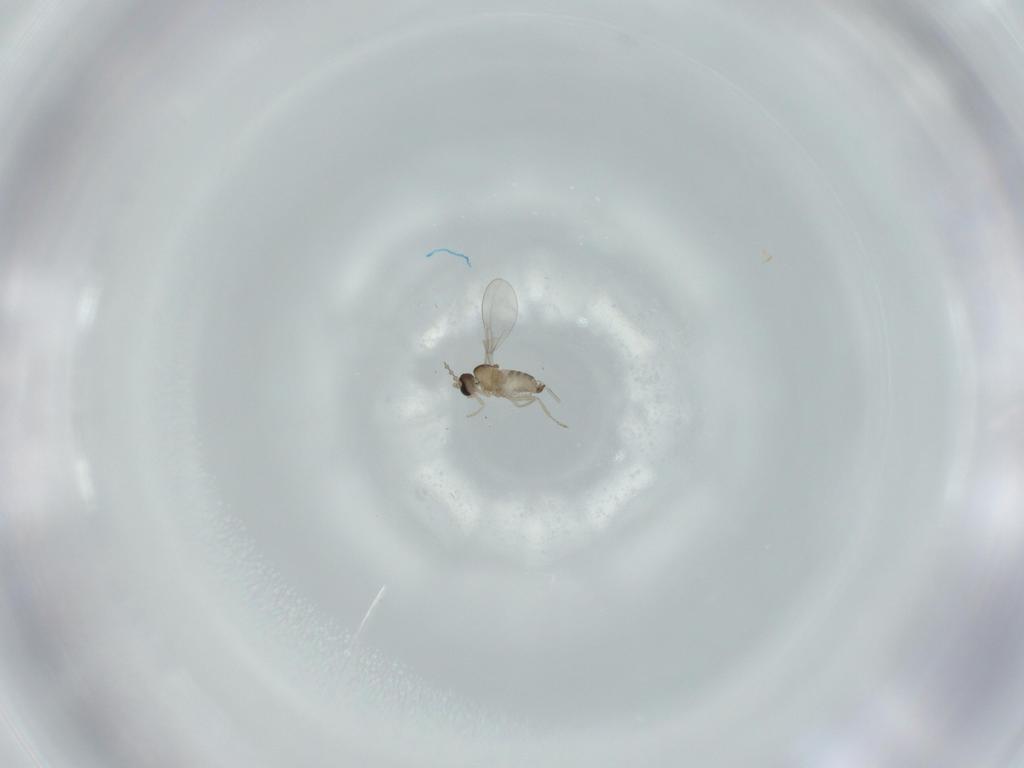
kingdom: Animalia
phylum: Arthropoda
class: Insecta
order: Diptera
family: Cecidomyiidae
